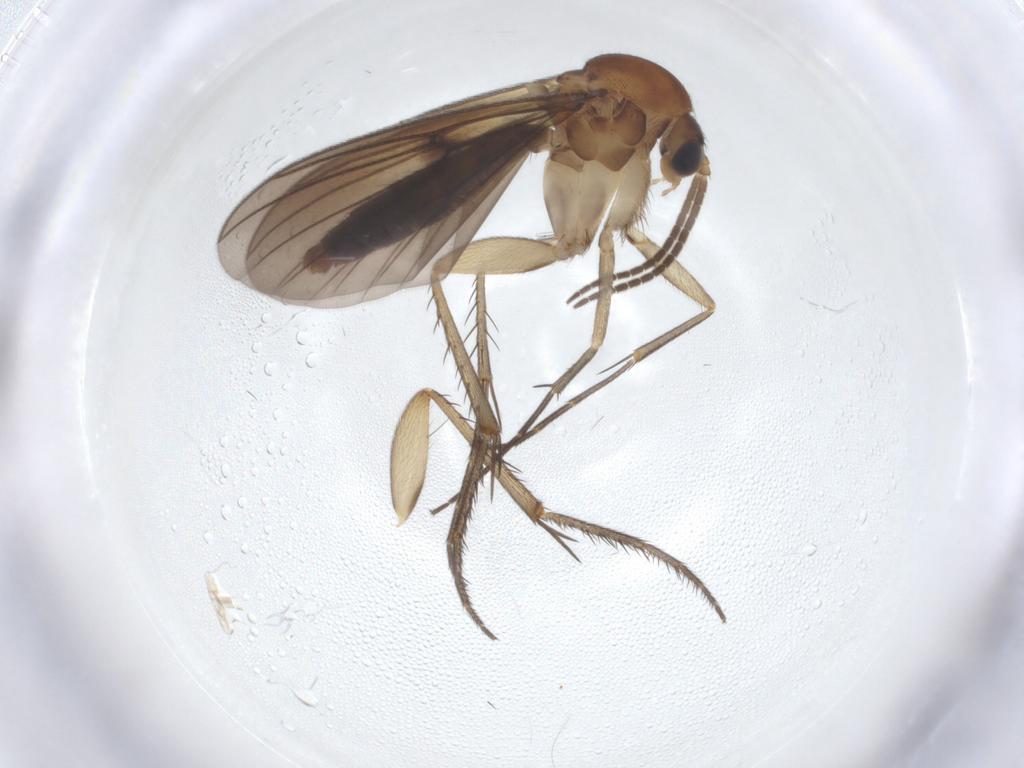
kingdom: Animalia
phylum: Arthropoda
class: Insecta
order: Diptera
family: Mycetophilidae
